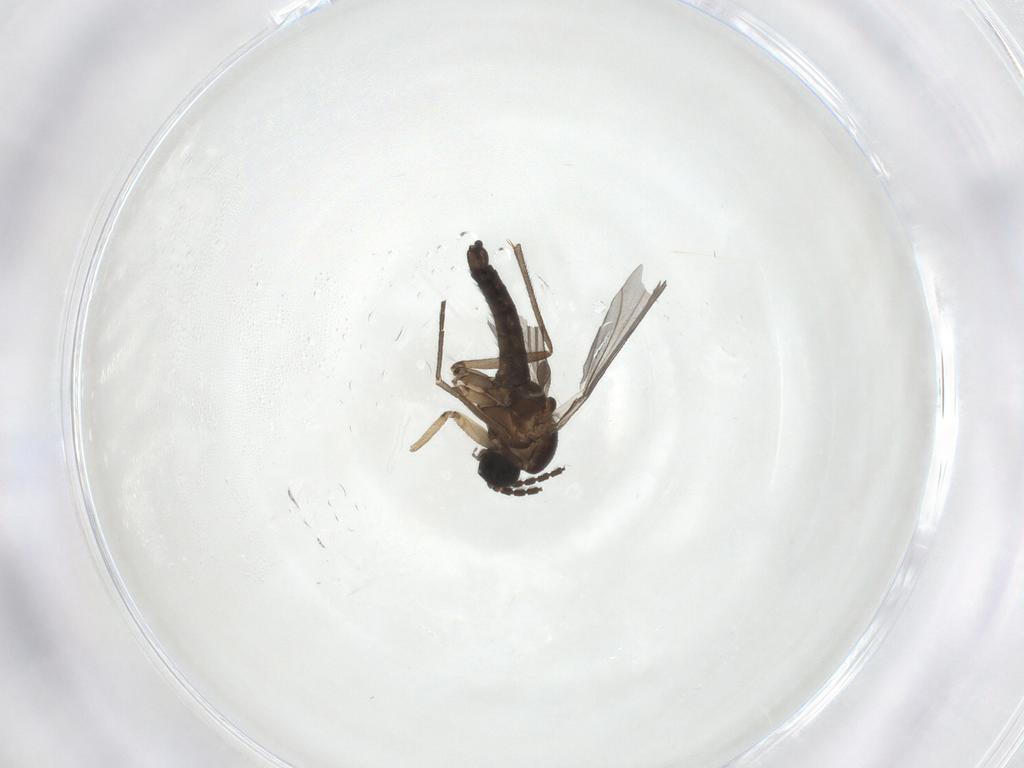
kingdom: Animalia
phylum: Arthropoda
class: Insecta
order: Diptera
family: Sciaridae
